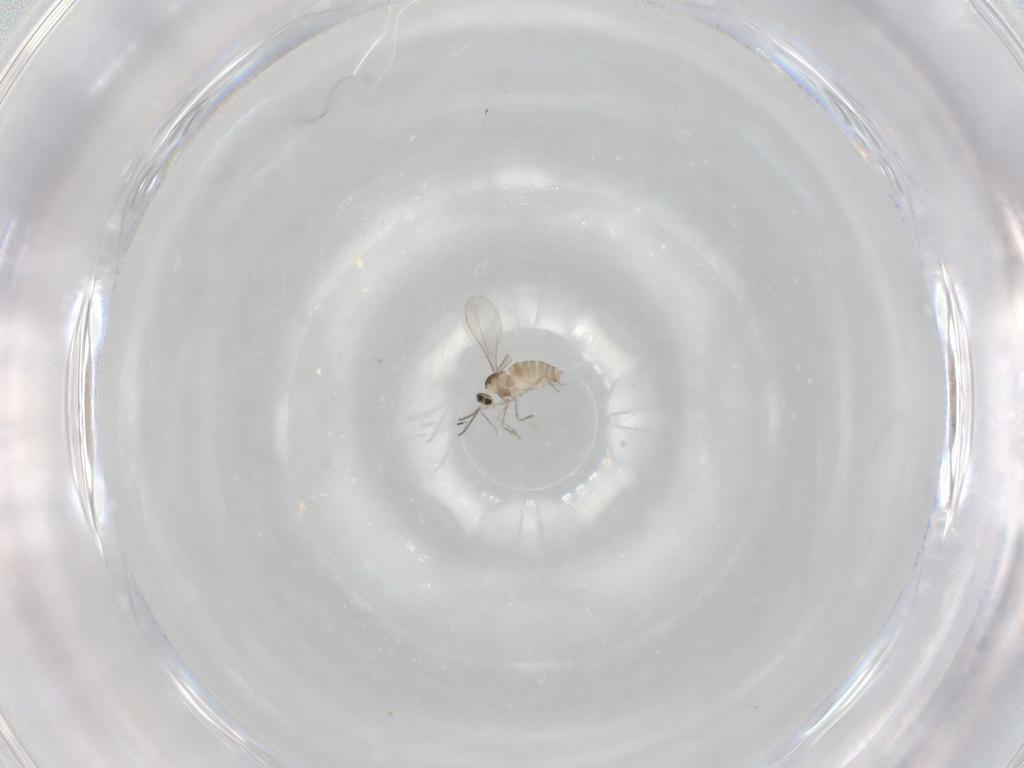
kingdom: Animalia
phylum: Arthropoda
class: Insecta
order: Diptera
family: Cecidomyiidae
